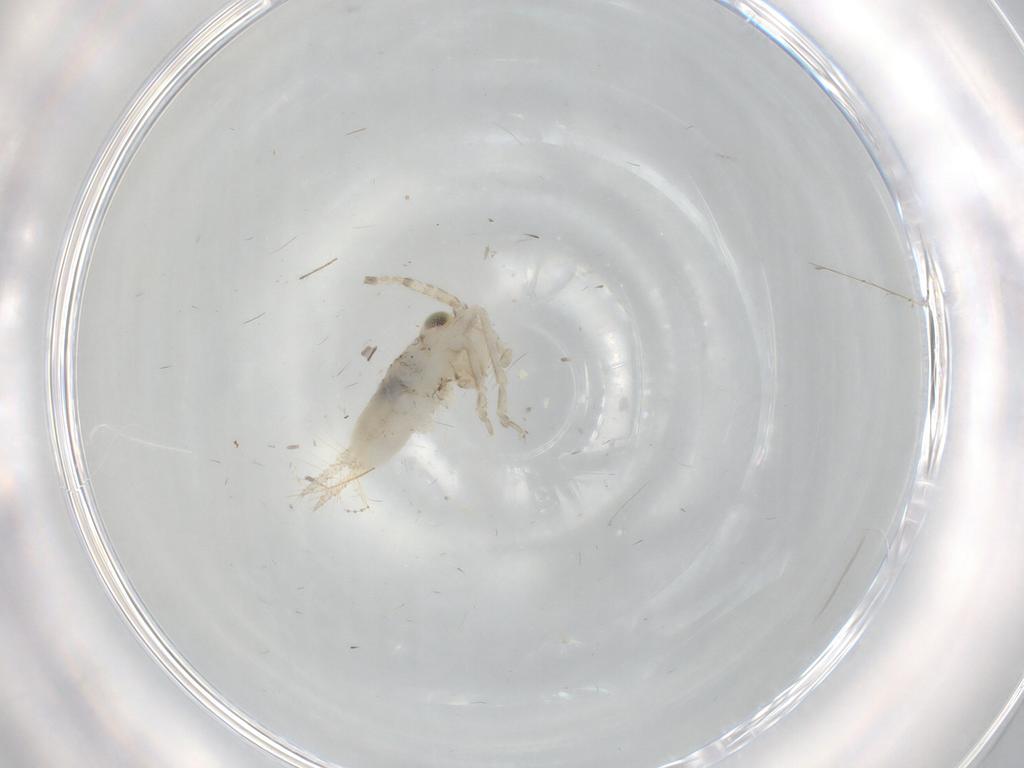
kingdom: Animalia
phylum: Arthropoda
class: Insecta
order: Orthoptera
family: Trigonidiidae
